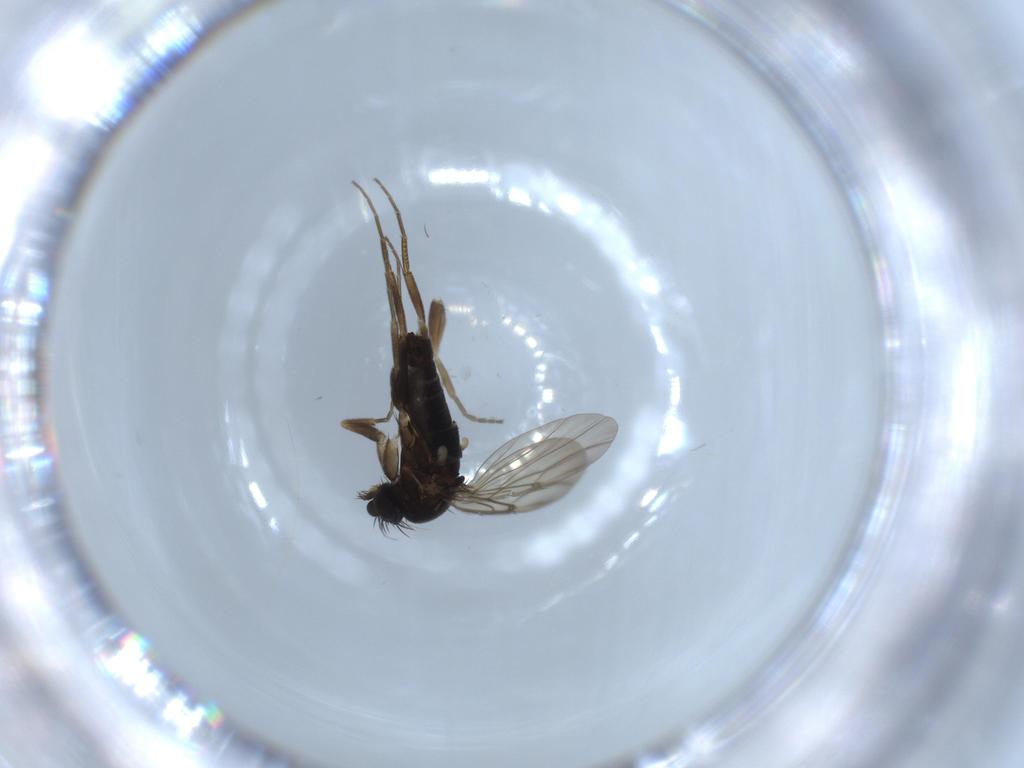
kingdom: Animalia
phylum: Arthropoda
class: Insecta
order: Diptera
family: Phoridae
